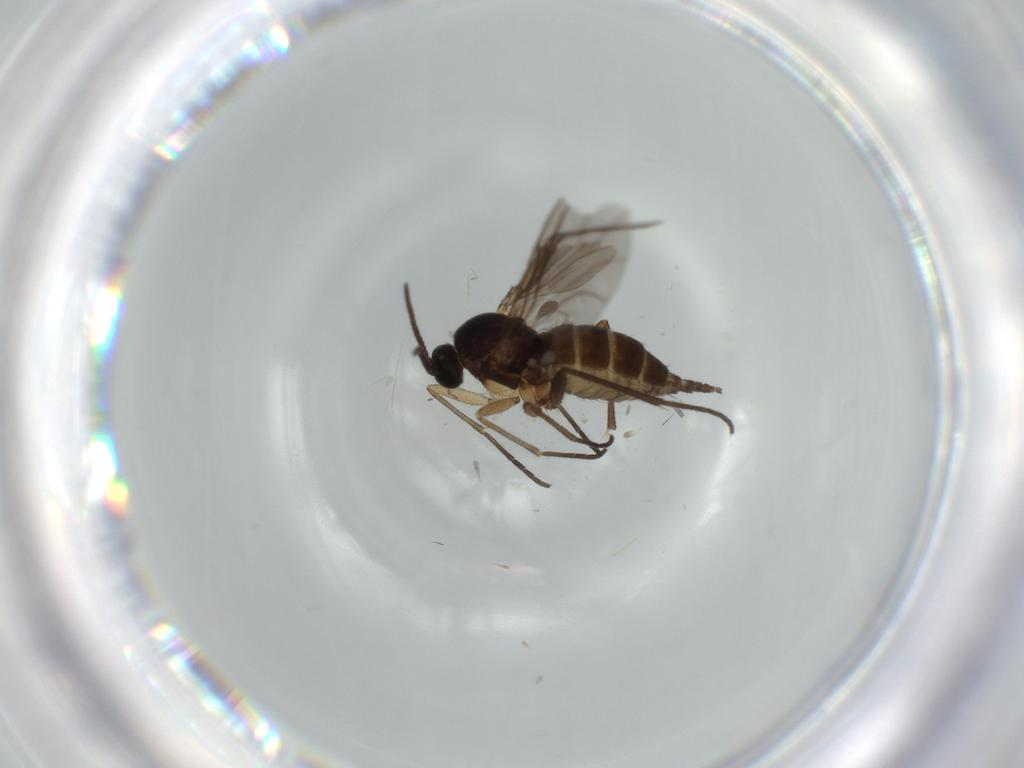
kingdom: Animalia
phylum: Arthropoda
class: Insecta
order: Diptera
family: Sciaridae
